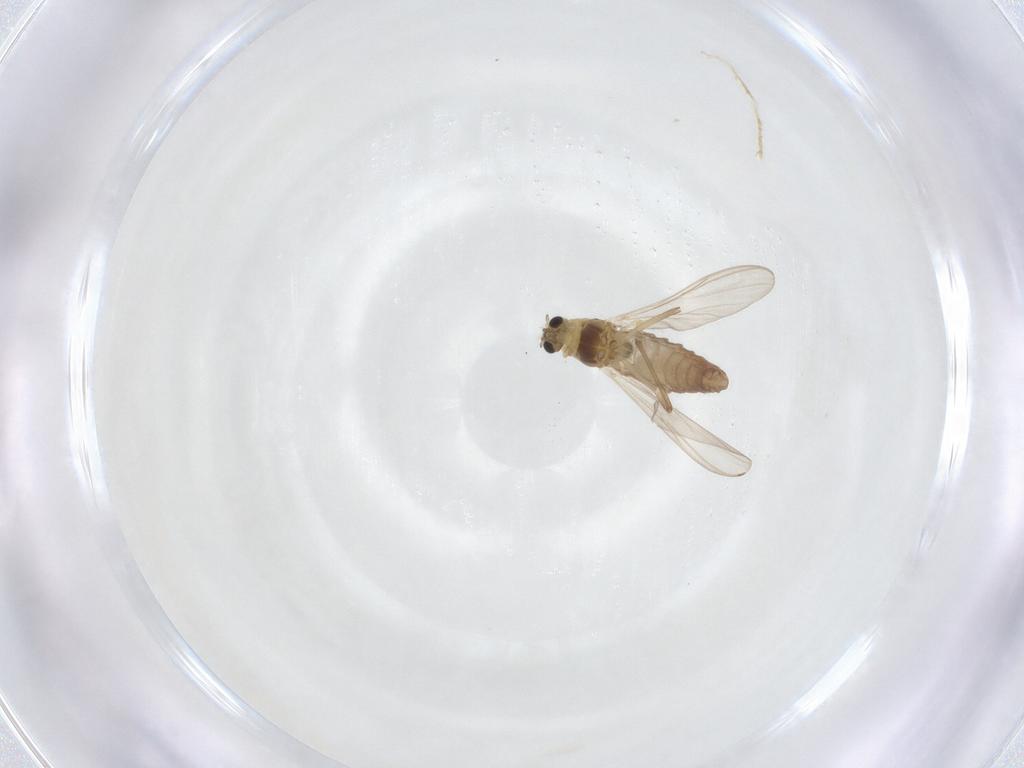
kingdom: Animalia
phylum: Arthropoda
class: Insecta
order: Diptera
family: Chironomidae
